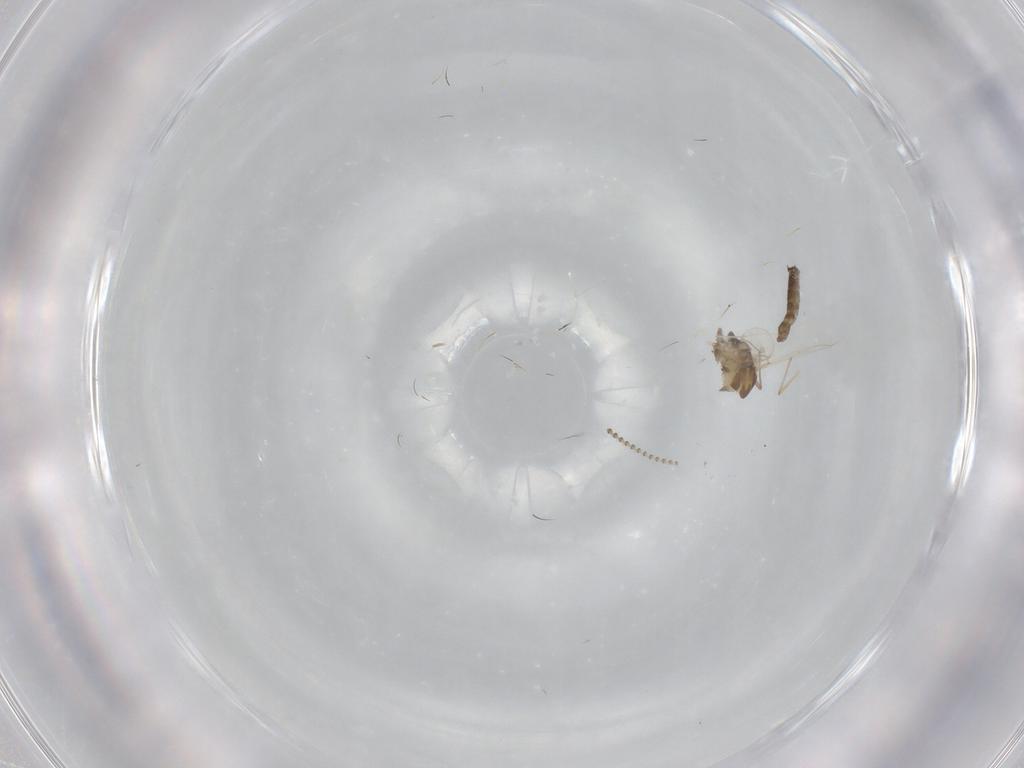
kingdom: Animalia
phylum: Arthropoda
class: Insecta
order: Diptera
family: Chironomidae
